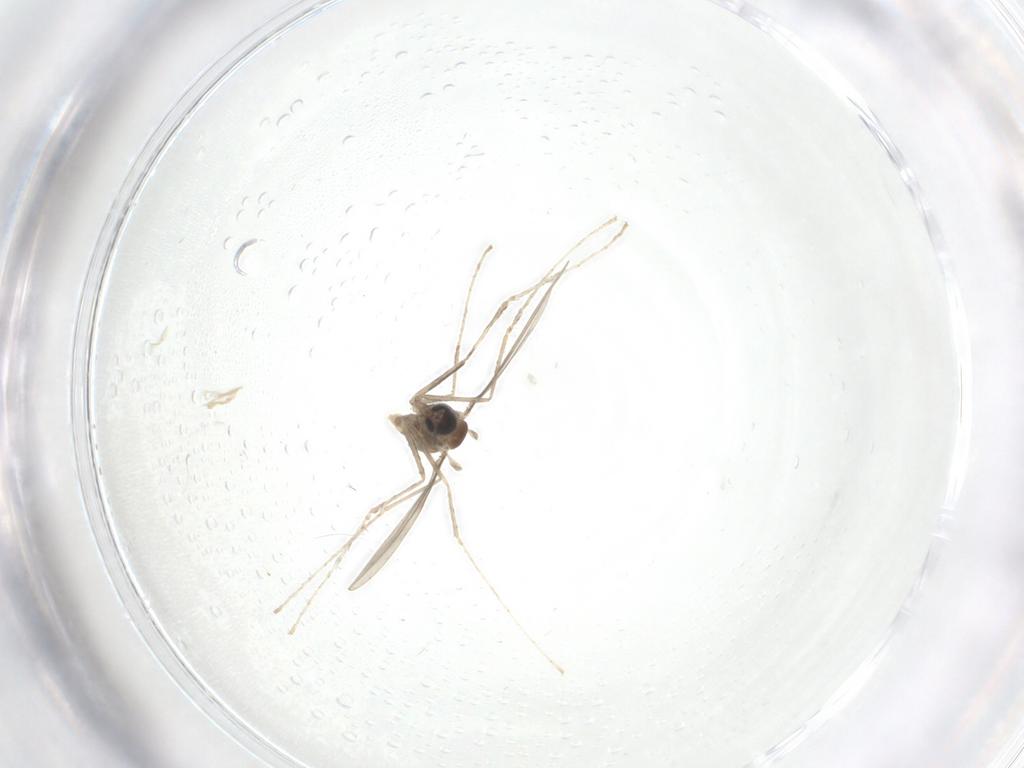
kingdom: Animalia
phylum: Arthropoda
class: Insecta
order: Diptera
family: Cecidomyiidae
